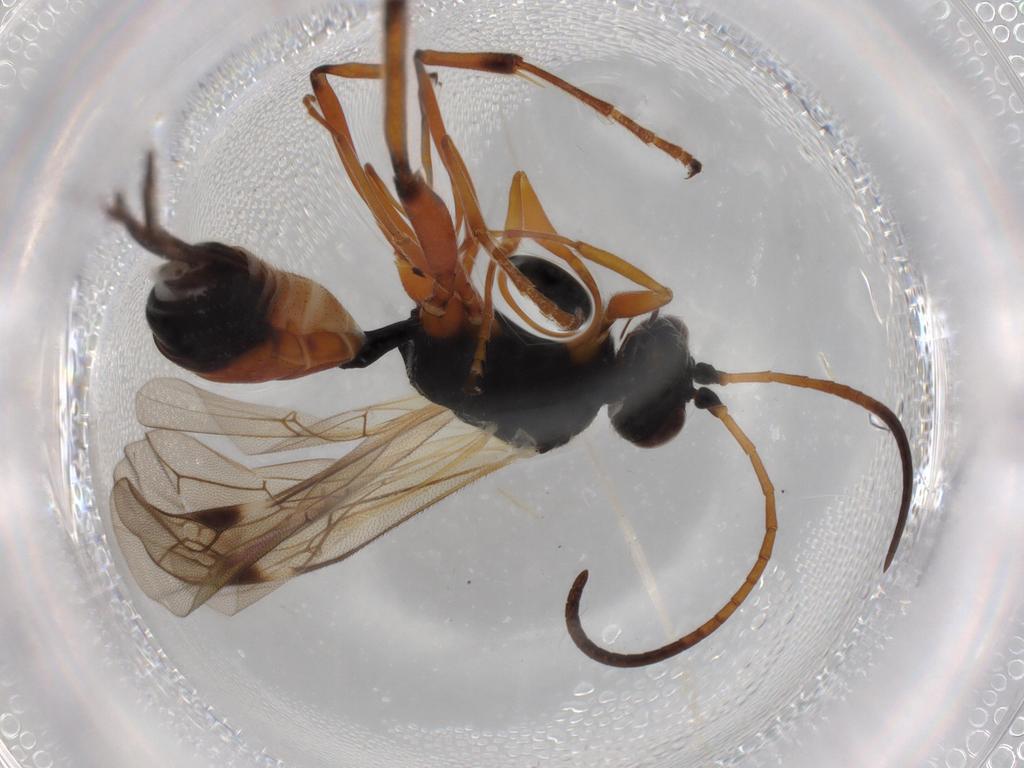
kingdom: Animalia
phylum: Arthropoda
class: Insecta
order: Hymenoptera
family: Ichneumonidae
